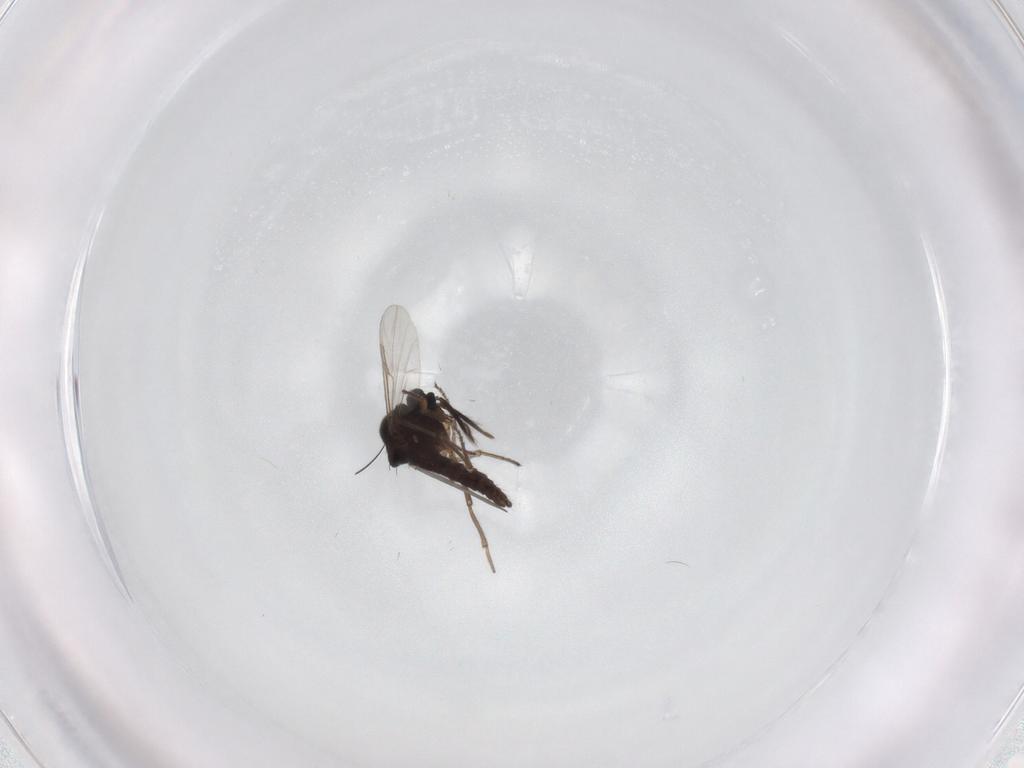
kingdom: Animalia
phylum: Arthropoda
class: Insecta
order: Diptera
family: Ceratopogonidae
